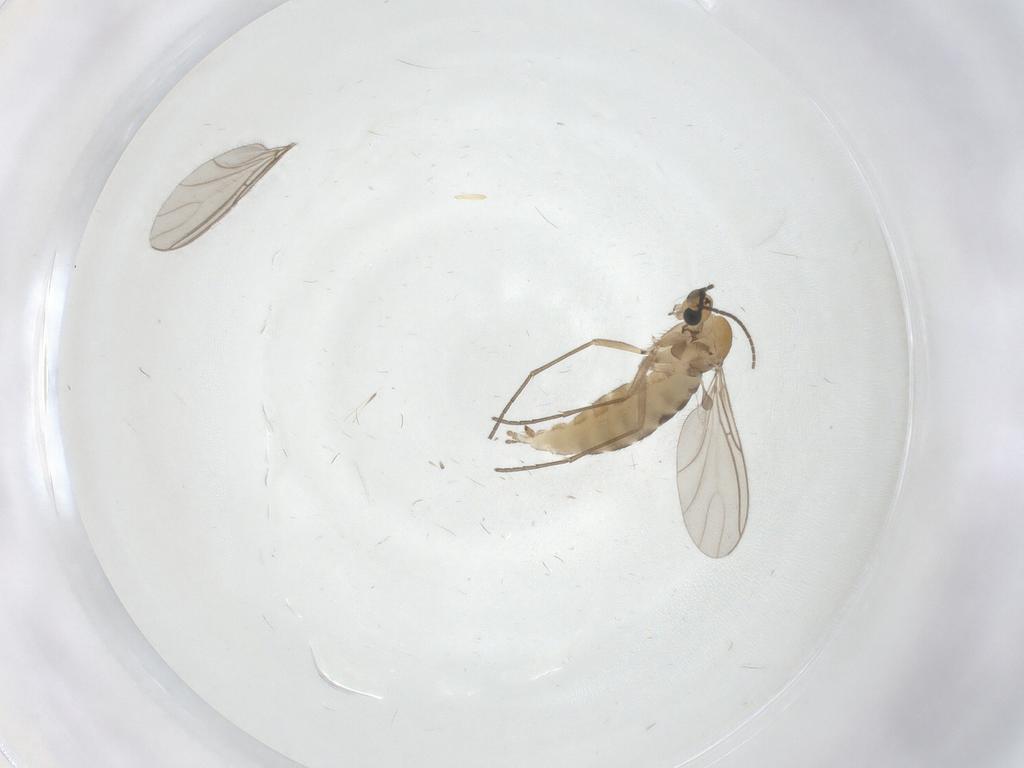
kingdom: Animalia
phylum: Arthropoda
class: Insecta
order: Diptera
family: Sciaridae
